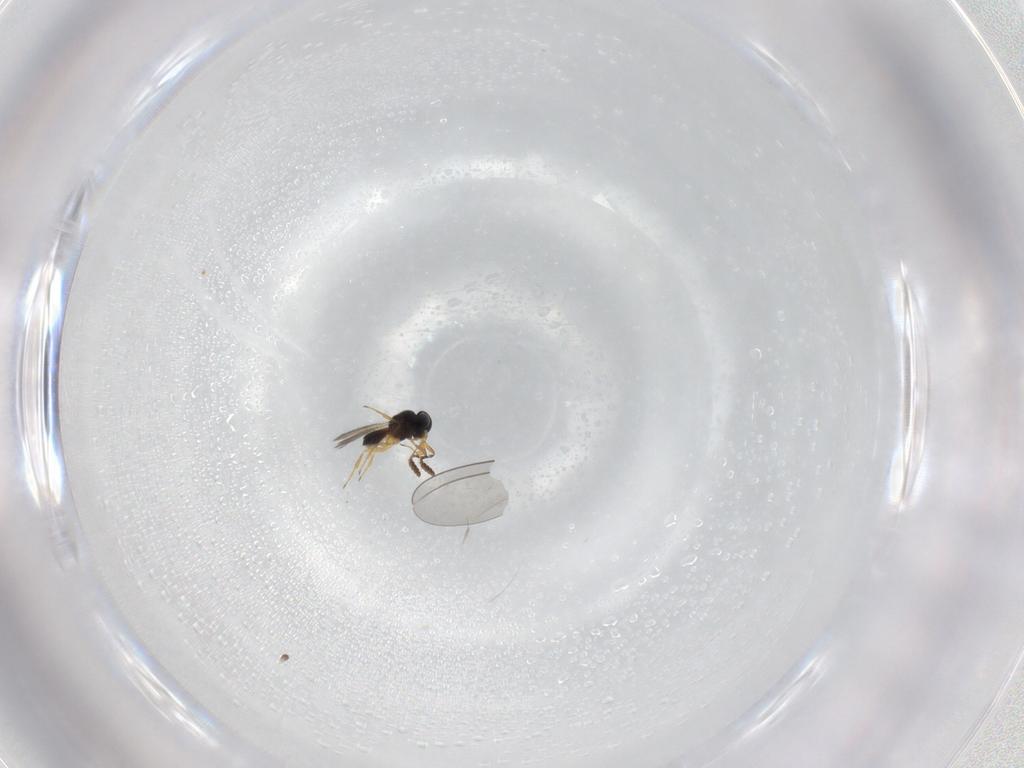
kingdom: Animalia
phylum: Arthropoda
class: Insecta
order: Hymenoptera
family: Scelionidae
